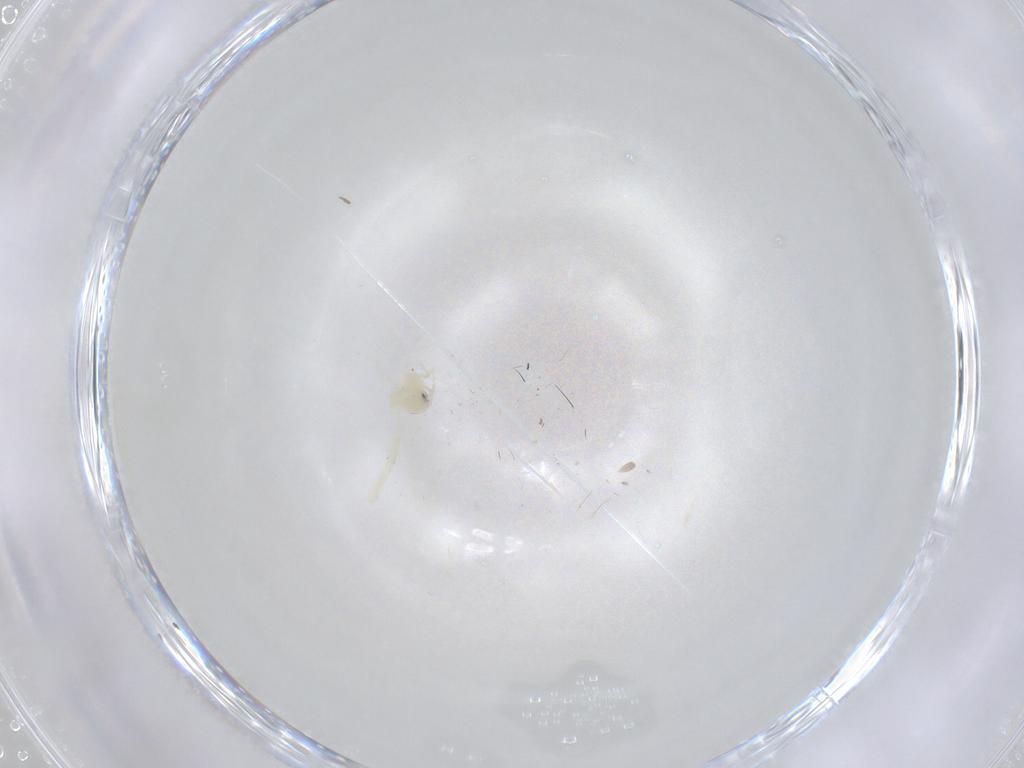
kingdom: Animalia
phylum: Arthropoda
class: Insecta
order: Hemiptera
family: Aleyrodidae
